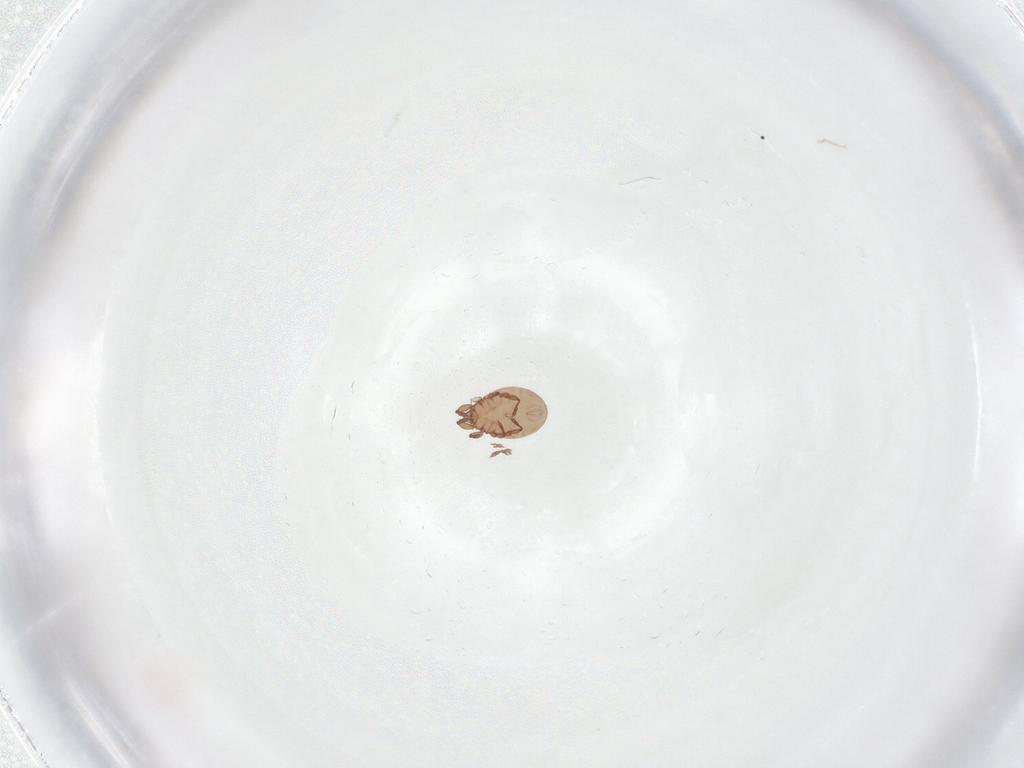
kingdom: Animalia
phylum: Arthropoda
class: Arachnida
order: Sarcoptiformes
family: Eremaeidae
